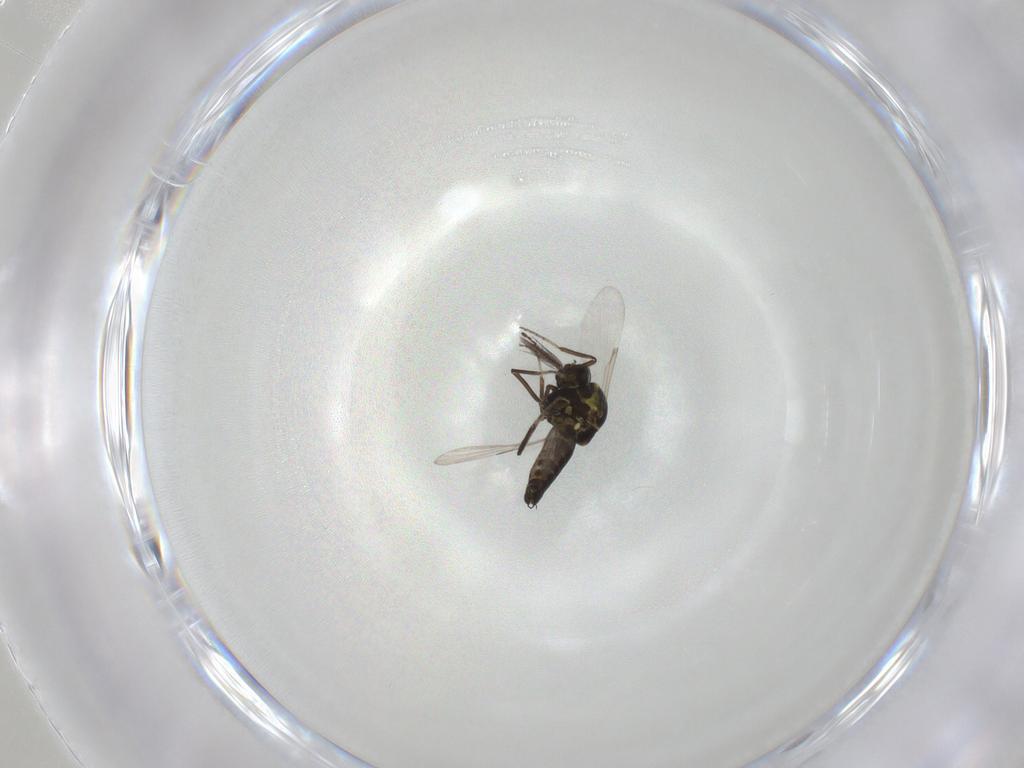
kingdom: Animalia
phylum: Arthropoda
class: Insecta
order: Diptera
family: Ceratopogonidae
